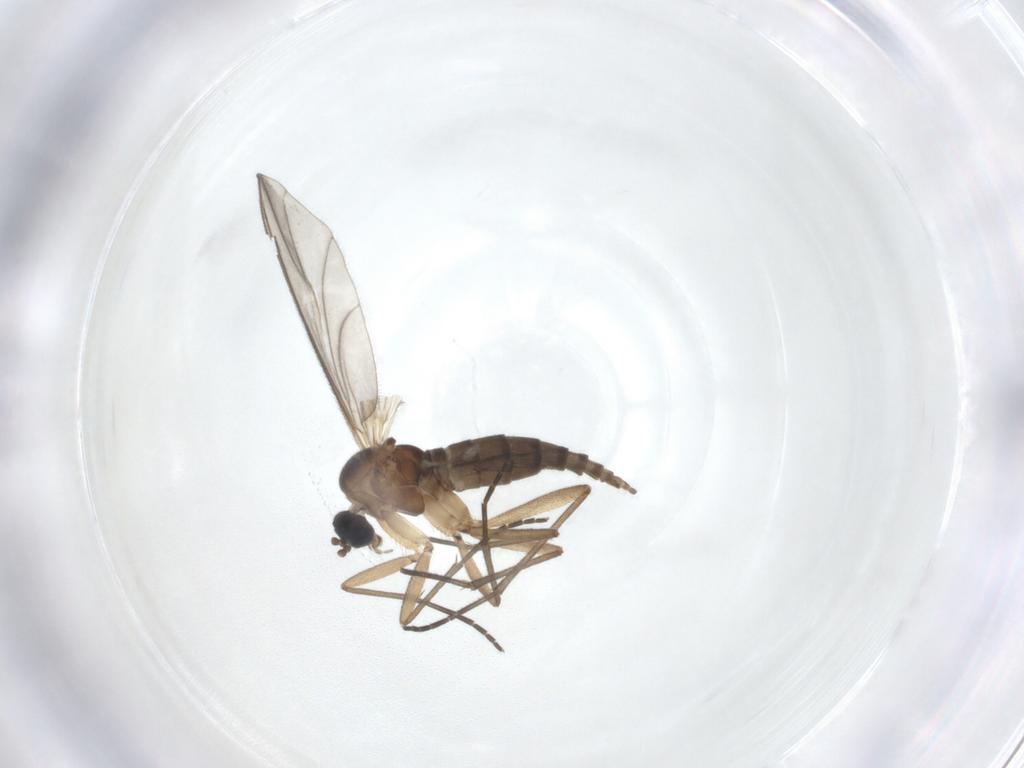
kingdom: Animalia
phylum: Arthropoda
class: Insecta
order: Diptera
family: Sciaridae
